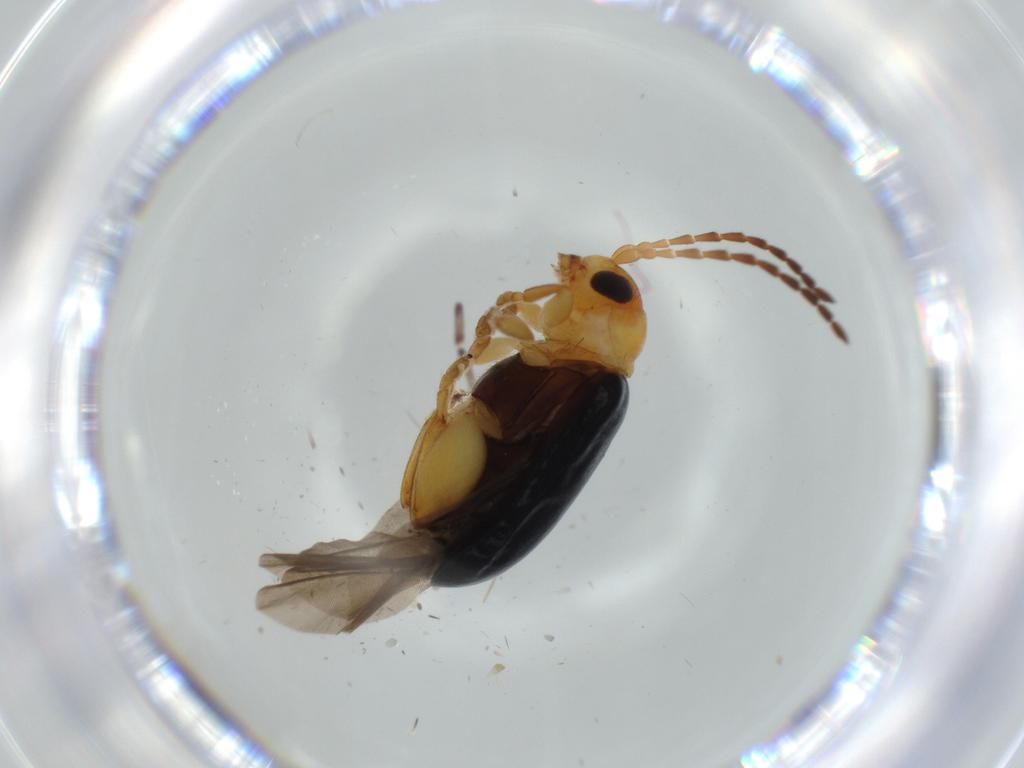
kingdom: Animalia
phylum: Arthropoda
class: Insecta
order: Coleoptera
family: Chrysomelidae
